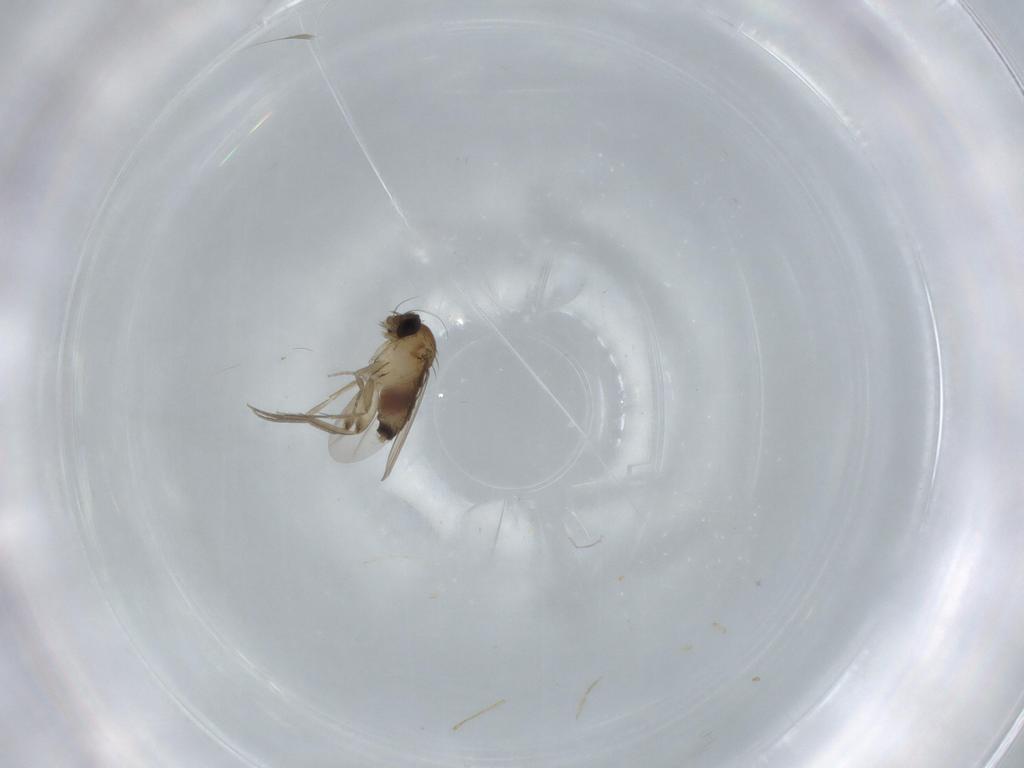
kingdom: Animalia
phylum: Arthropoda
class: Insecta
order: Diptera
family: Phoridae
